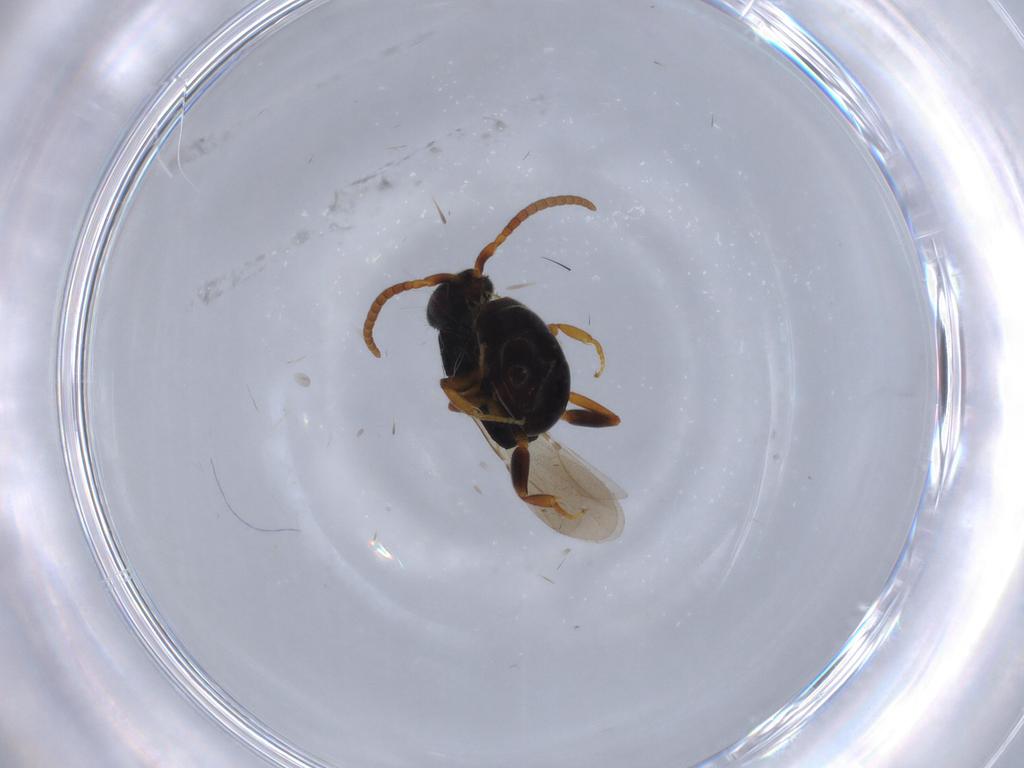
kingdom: Animalia
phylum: Arthropoda
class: Insecta
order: Hymenoptera
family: Bethylidae
